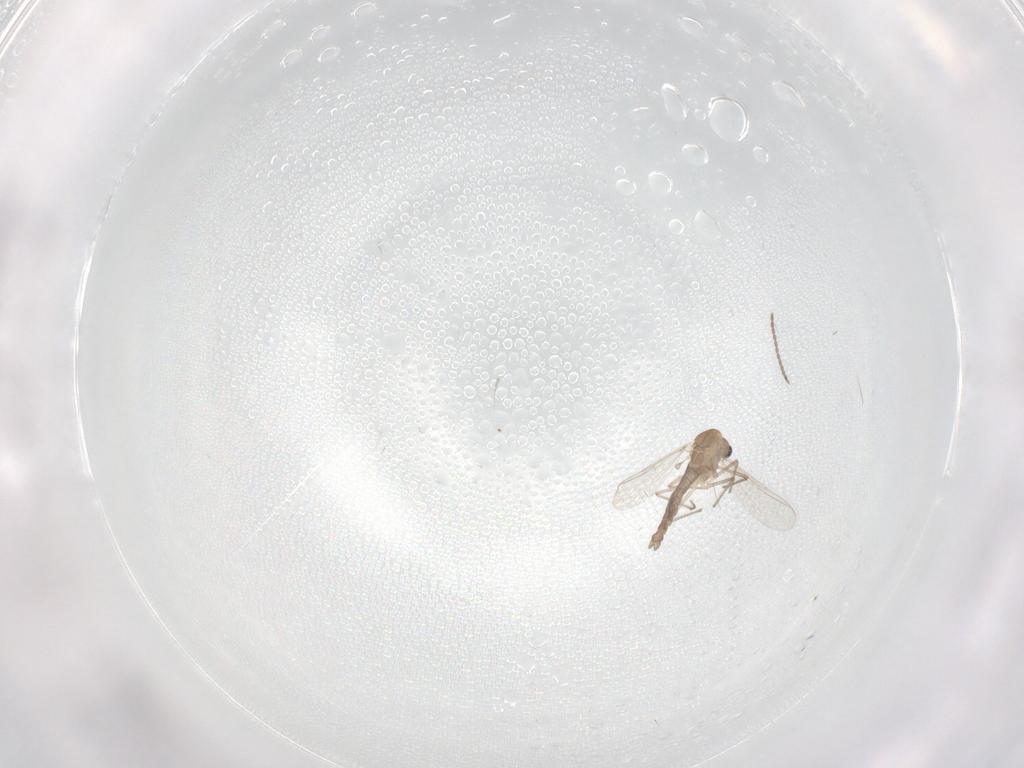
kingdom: Animalia
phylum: Arthropoda
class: Insecta
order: Diptera
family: Chironomidae
